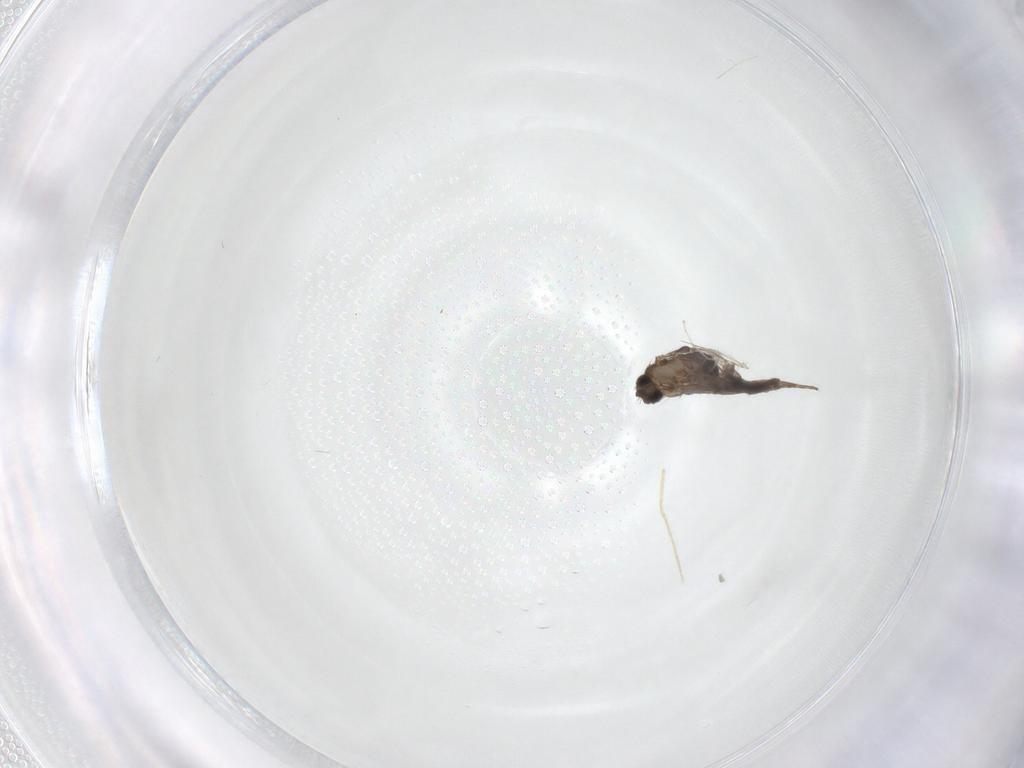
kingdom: Animalia
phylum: Arthropoda
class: Insecta
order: Diptera
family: Cecidomyiidae
